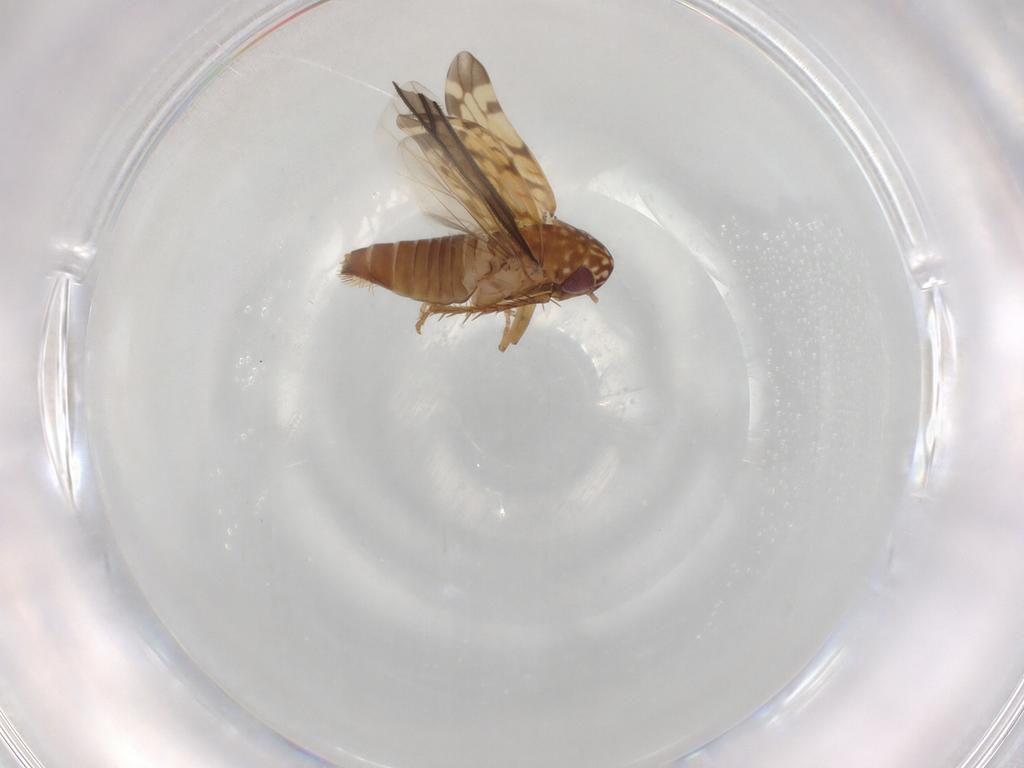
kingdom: Animalia
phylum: Arthropoda
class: Insecta
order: Hemiptera
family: Cicadellidae
